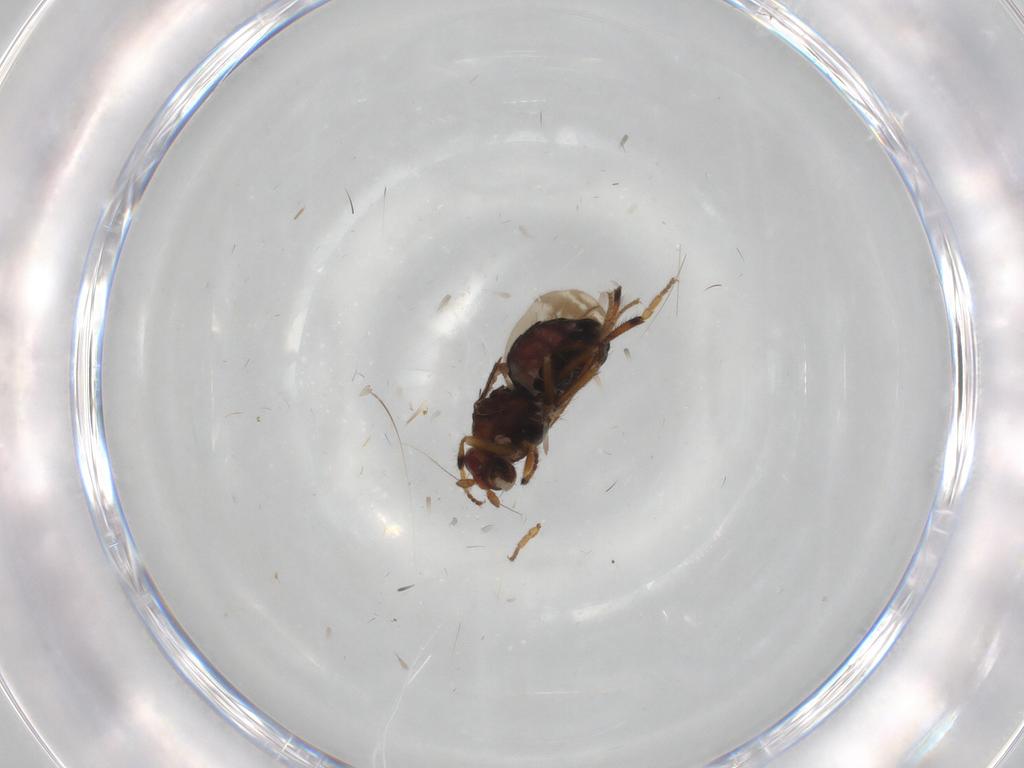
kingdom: Animalia
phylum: Arthropoda
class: Insecta
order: Diptera
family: Sphaeroceridae
